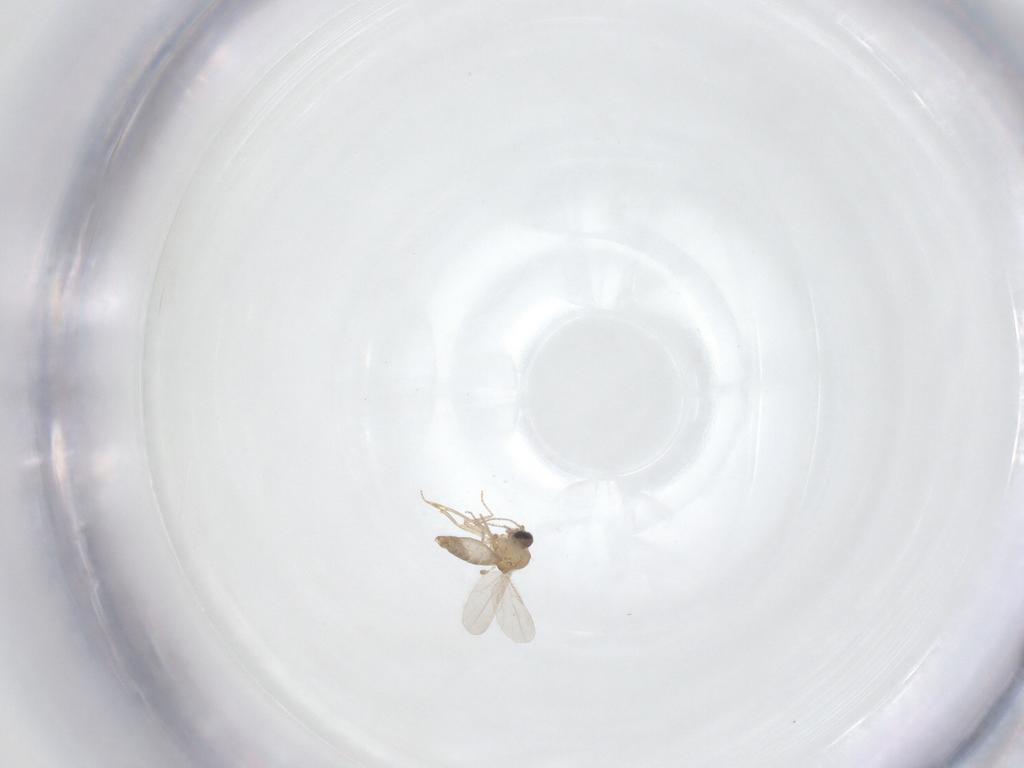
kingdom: Animalia
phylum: Arthropoda
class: Insecta
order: Diptera
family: Ceratopogonidae
